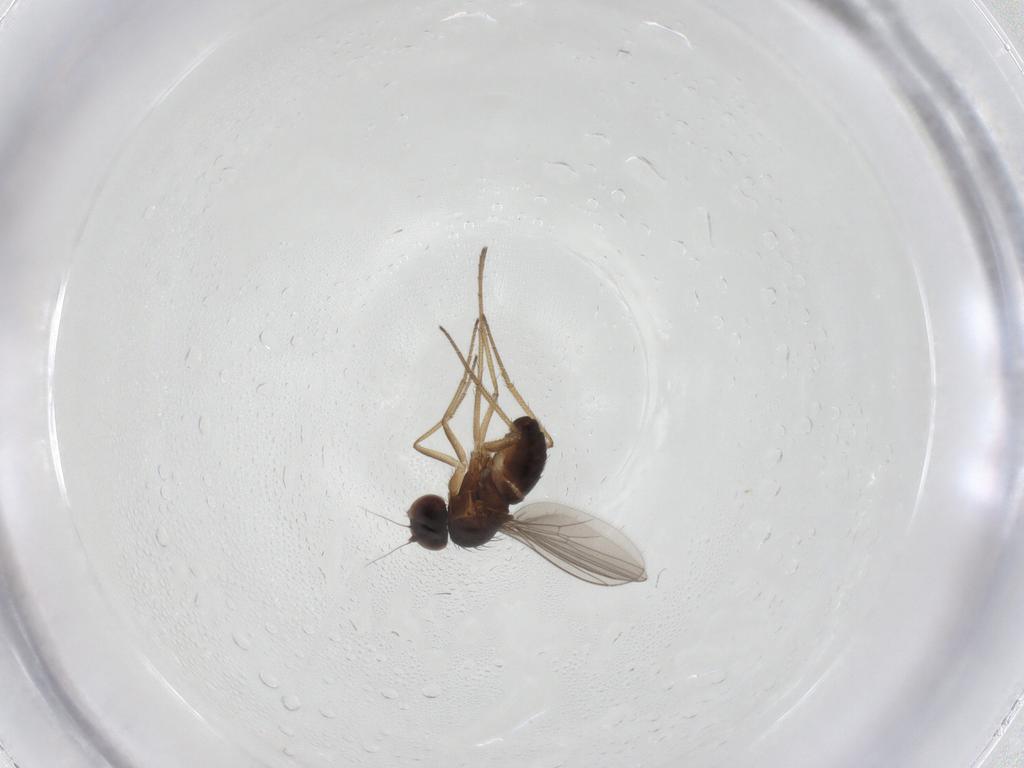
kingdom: Animalia
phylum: Arthropoda
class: Insecta
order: Diptera
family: Dolichopodidae
